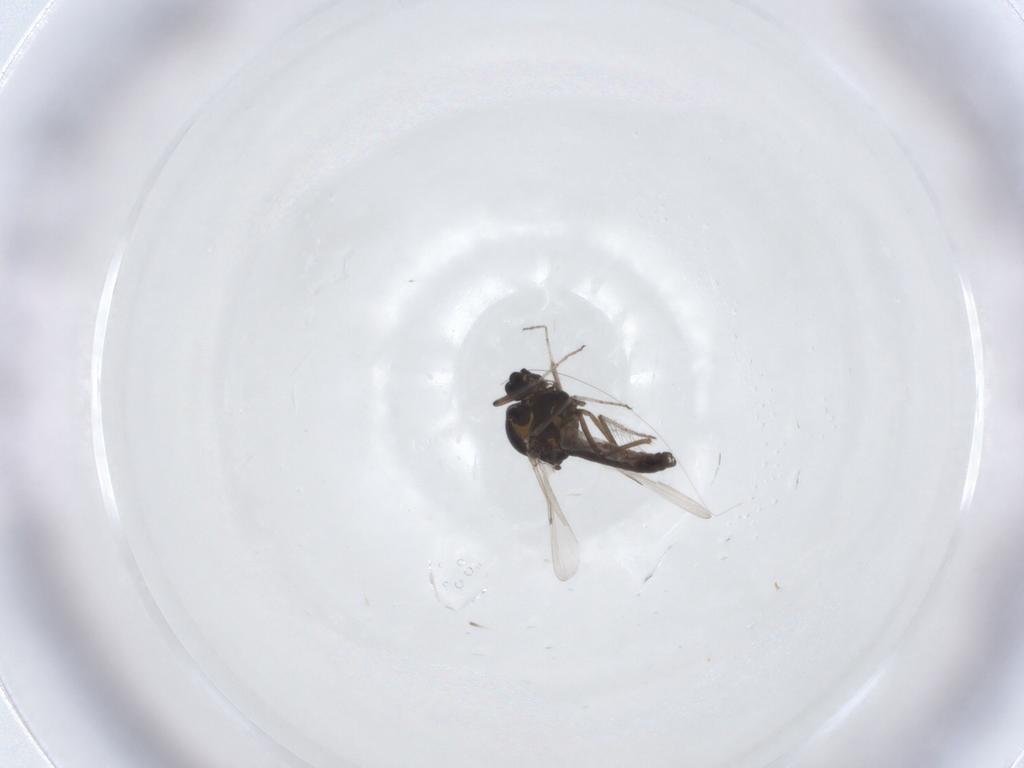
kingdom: Animalia
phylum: Arthropoda
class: Insecta
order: Diptera
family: Ceratopogonidae
